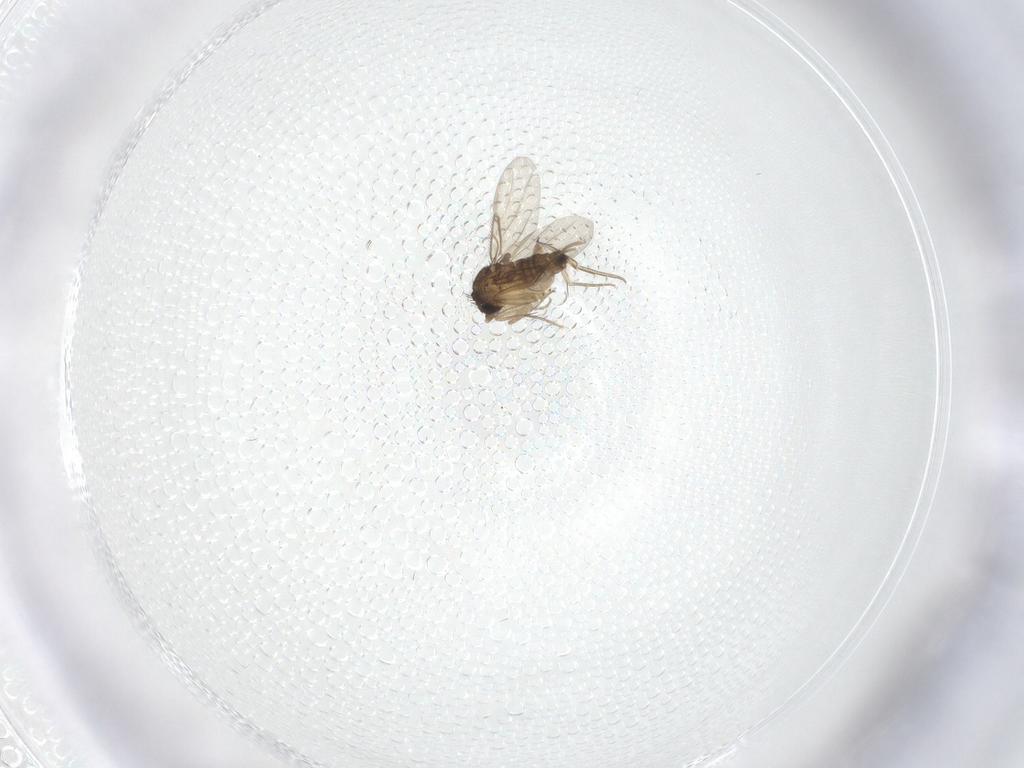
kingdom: Animalia
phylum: Arthropoda
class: Insecta
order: Diptera
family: Phoridae
